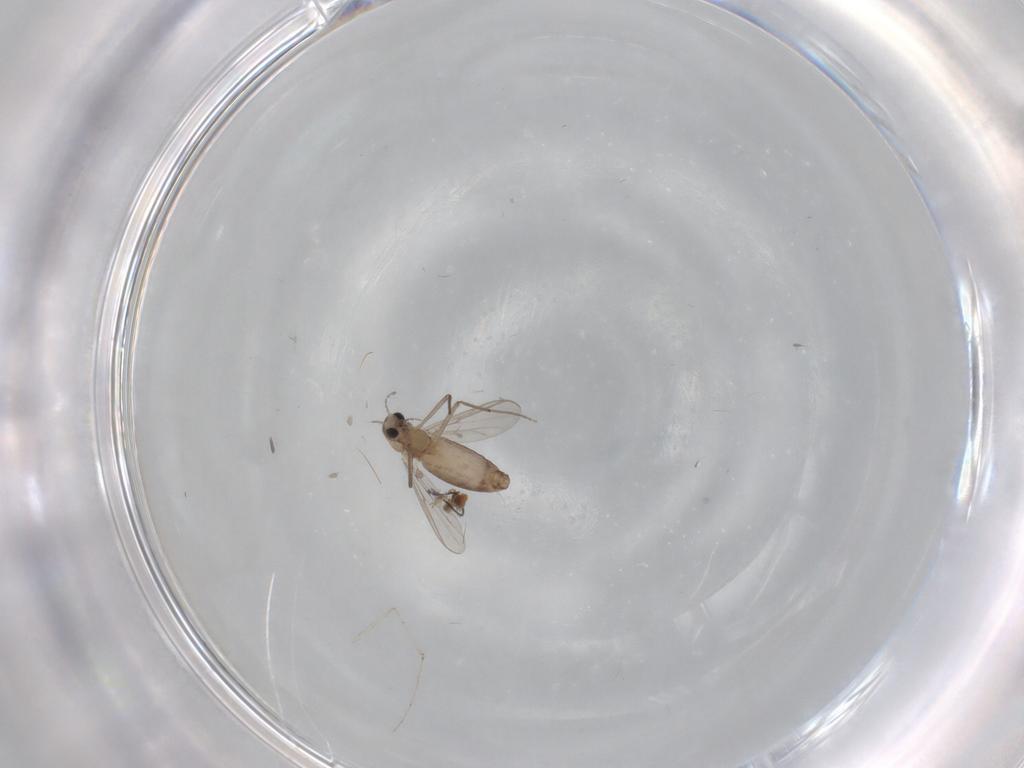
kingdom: Animalia
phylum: Arthropoda
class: Insecta
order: Diptera
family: Chironomidae
